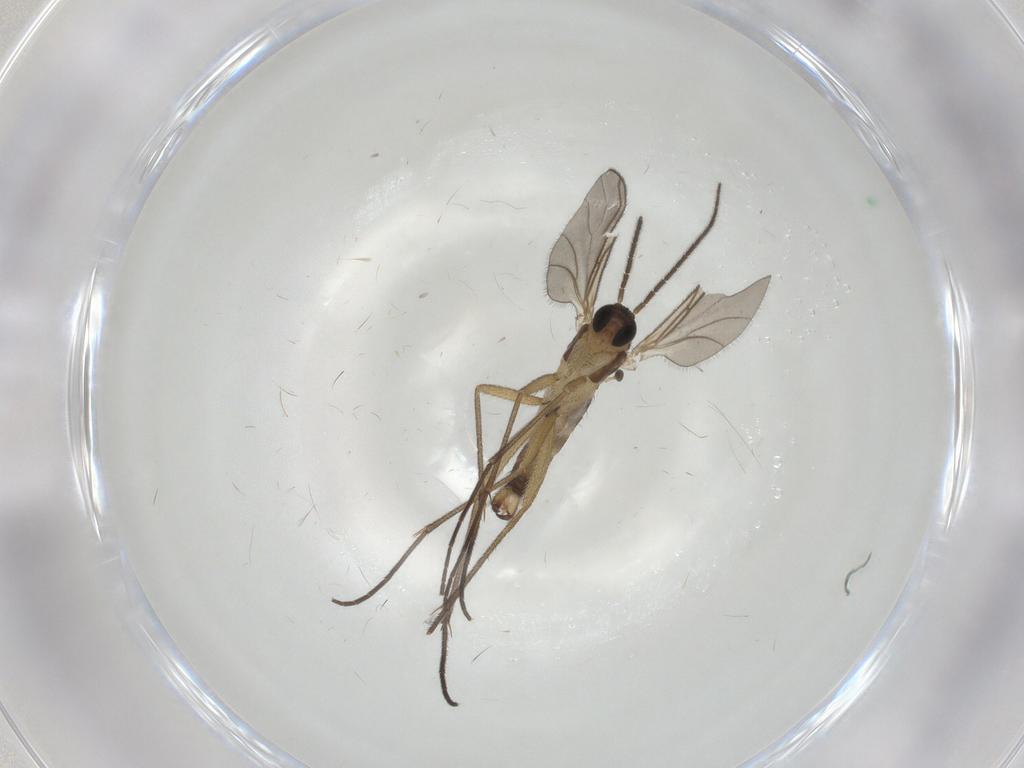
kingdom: Animalia
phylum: Arthropoda
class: Insecta
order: Diptera
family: Sciaridae
